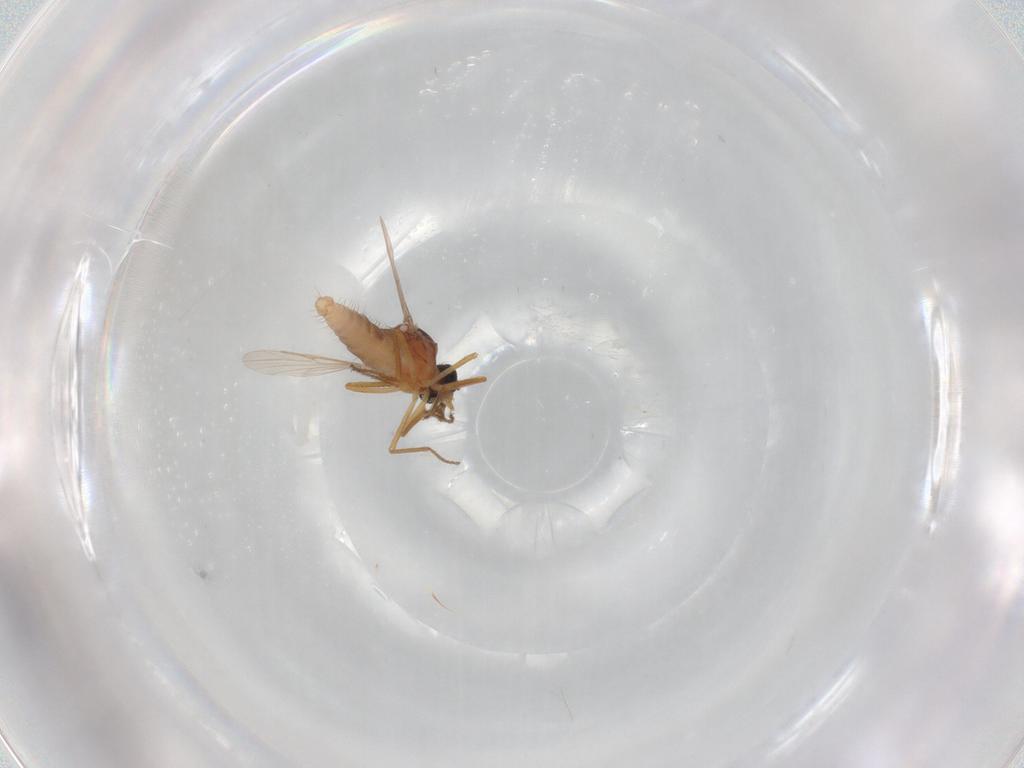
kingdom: Animalia
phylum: Arthropoda
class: Insecta
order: Diptera
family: Ceratopogonidae
